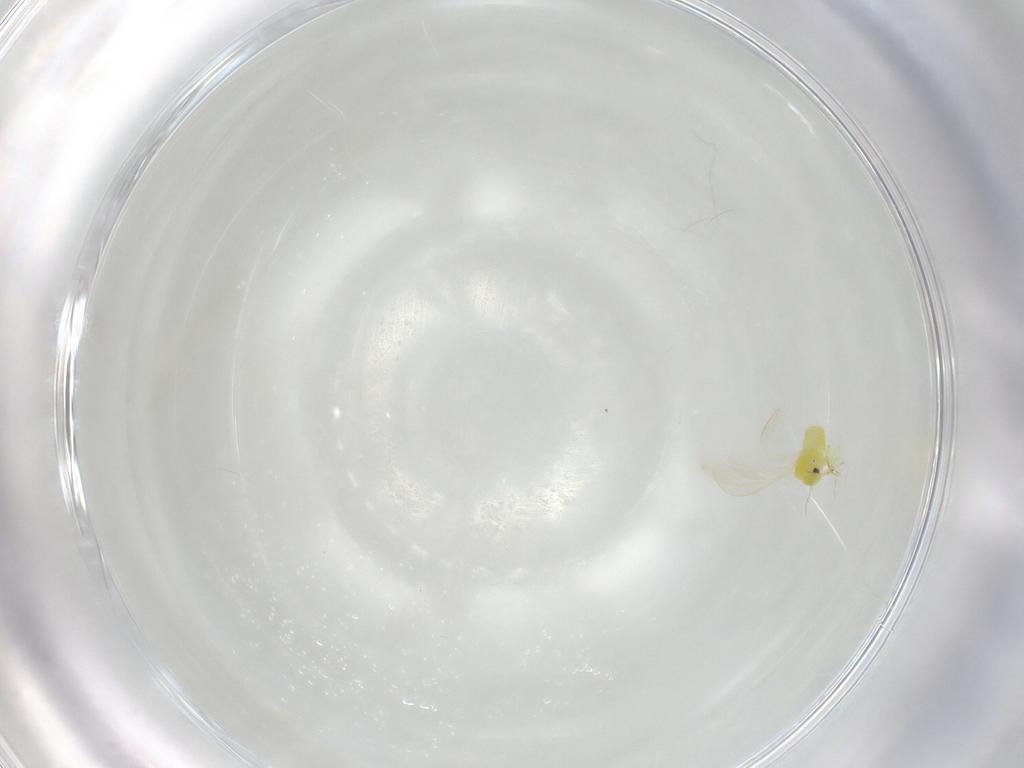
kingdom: Animalia
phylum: Arthropoda
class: Insecta
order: Hemiptera
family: Aleyrodidae
